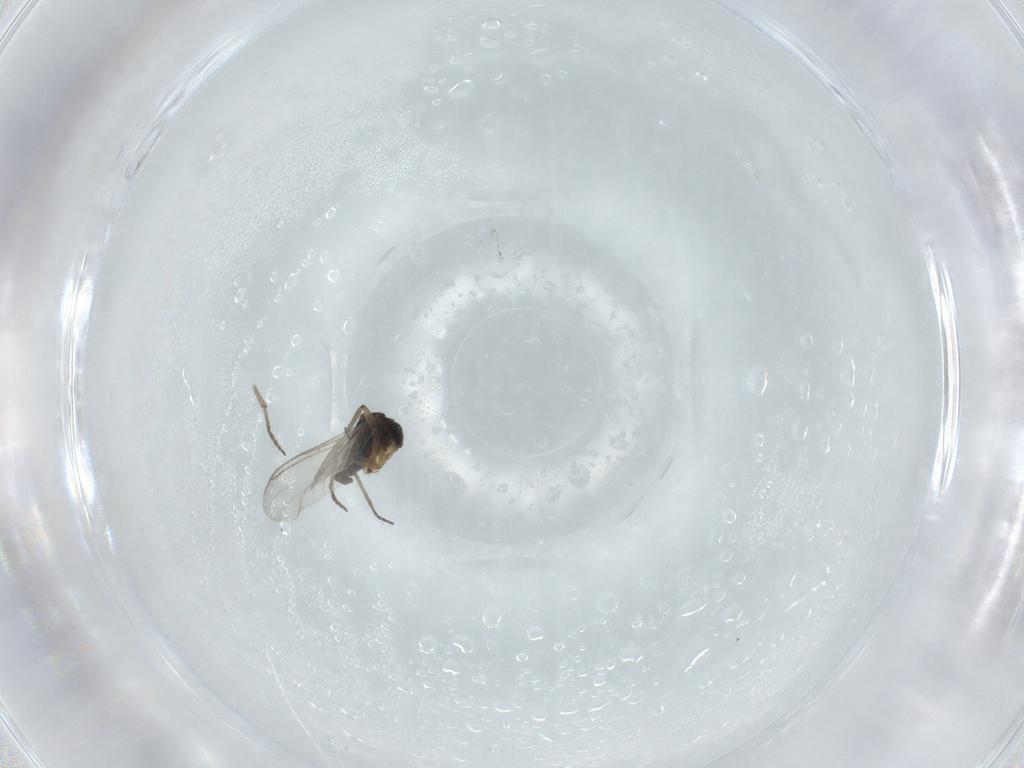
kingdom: Animalia
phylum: Arthropoda
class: Insecta
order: Diptera
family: Sciaridae
